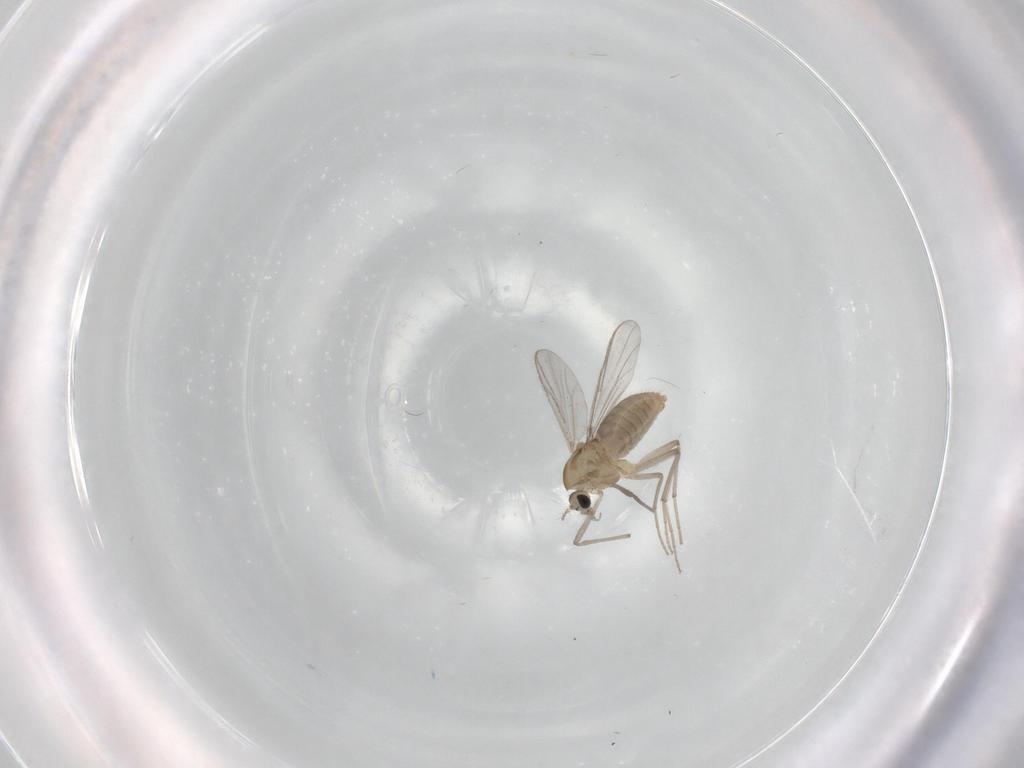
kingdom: Animalia
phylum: Arthropoda
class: Insecta
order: Diptera
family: Chironomidae
